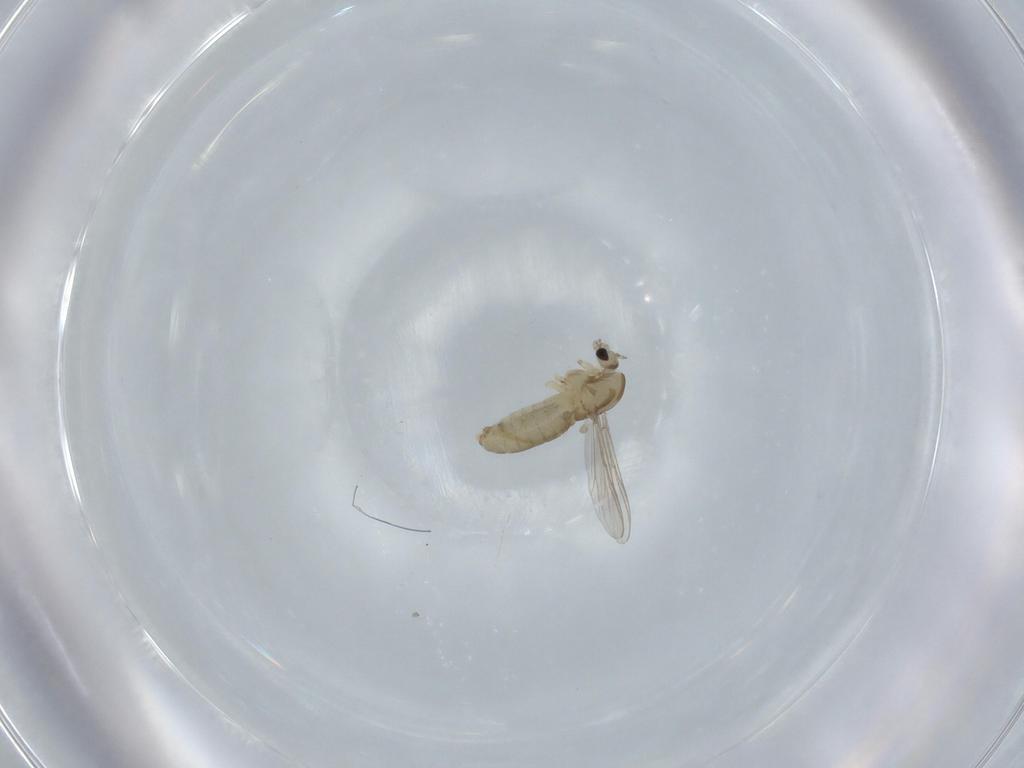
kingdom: Animalia
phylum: Arthropoda
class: Insecta
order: Diptera
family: Chironomidae
